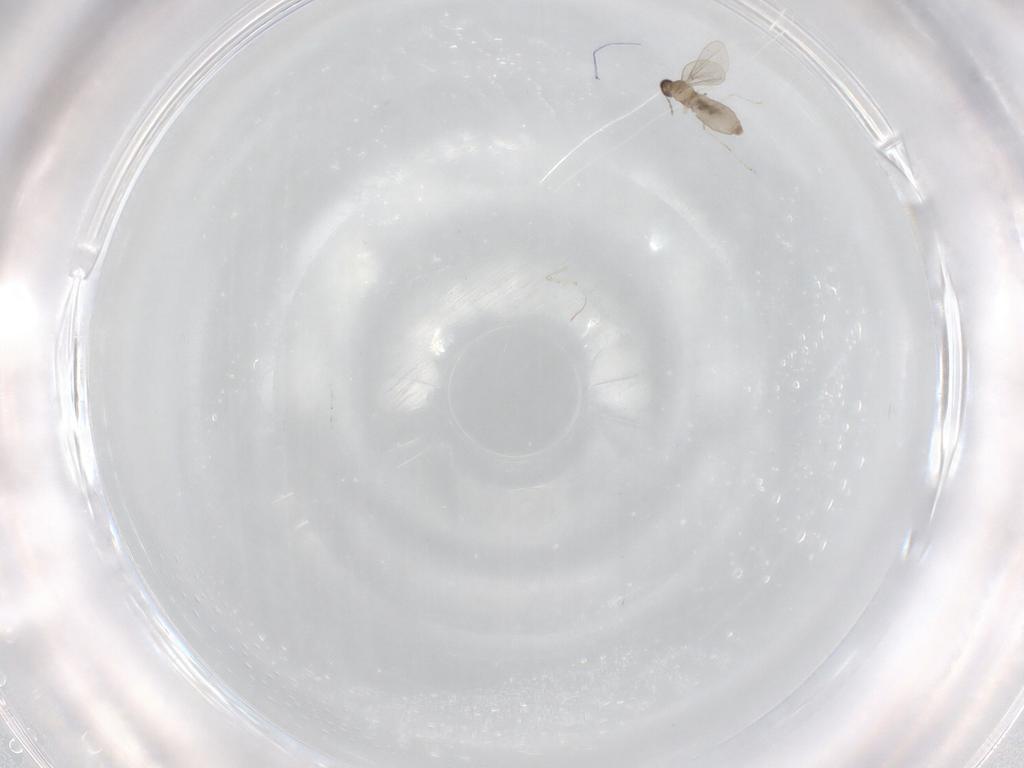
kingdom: Animalia
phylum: Arthropoda
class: Insecta
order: Diptera
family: Cecidomyiidae
